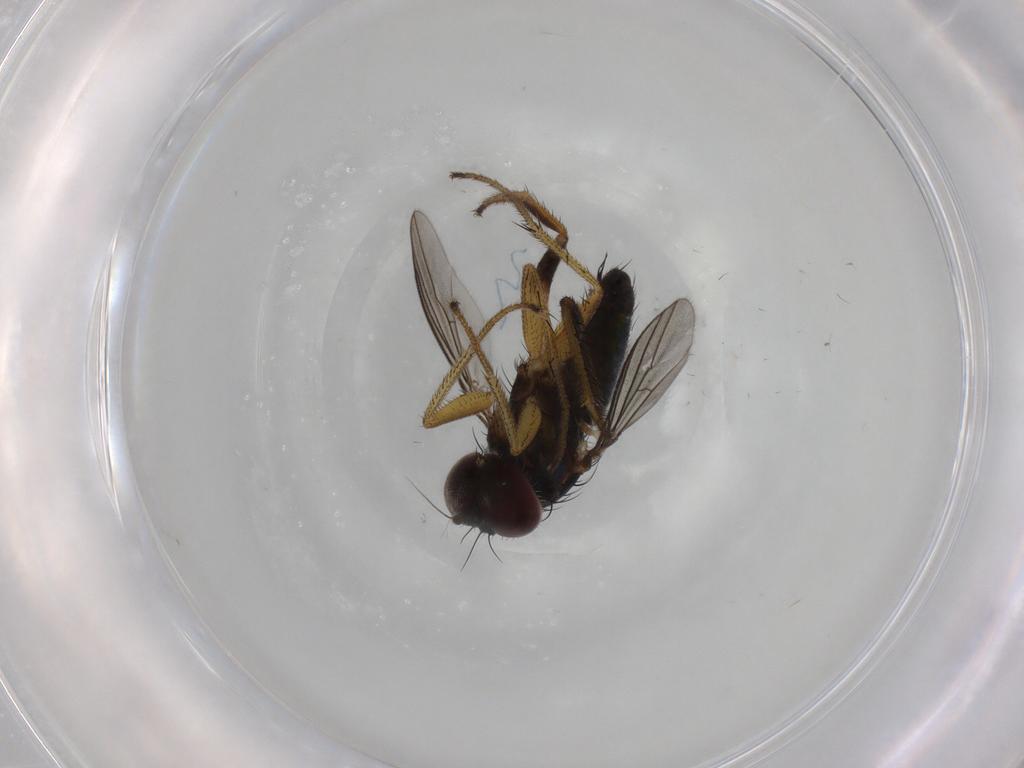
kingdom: Animalia
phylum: Arthropoda
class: Insecta
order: Diptera
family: Dolichopodidae
